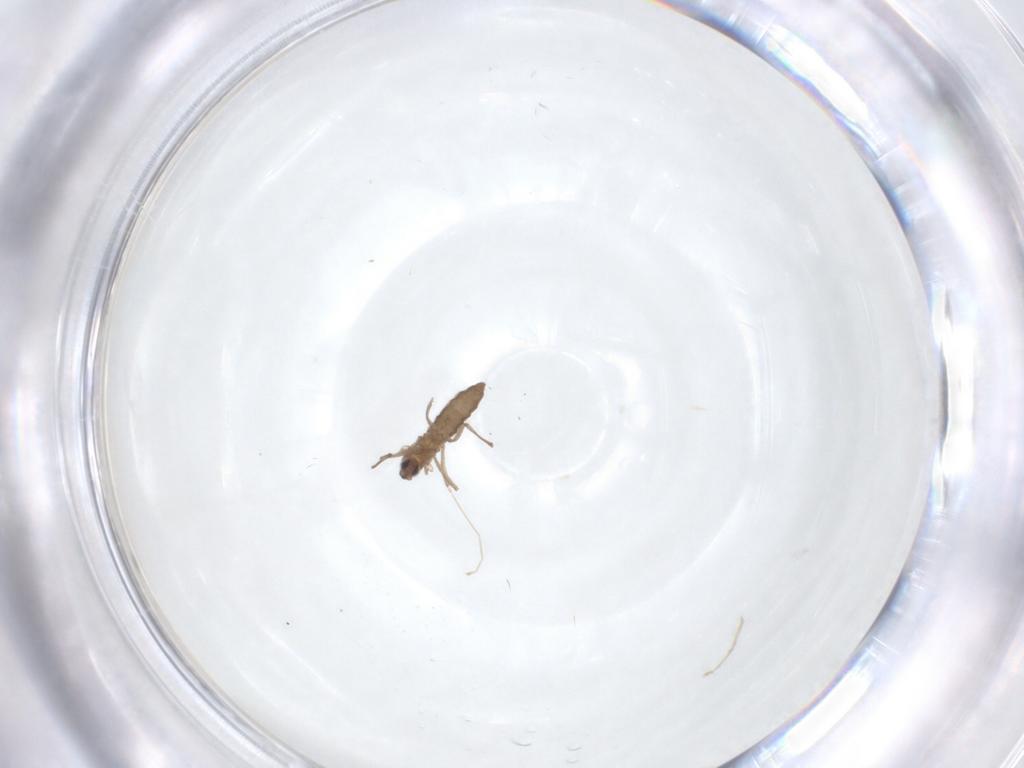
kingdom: Animalia
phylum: Arthropoda
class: Insecta
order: Diptera
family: Cecidomyiidae
